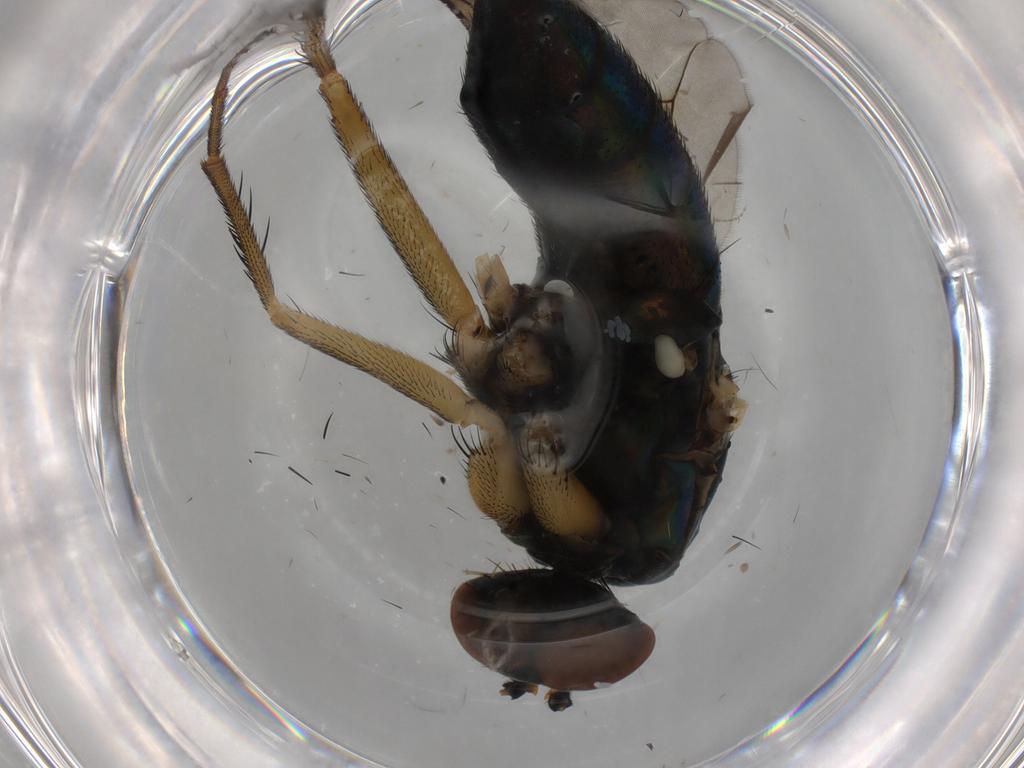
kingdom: Animalia
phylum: Arthropoda
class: Insecta
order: Diptera
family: Dolichopodidae
